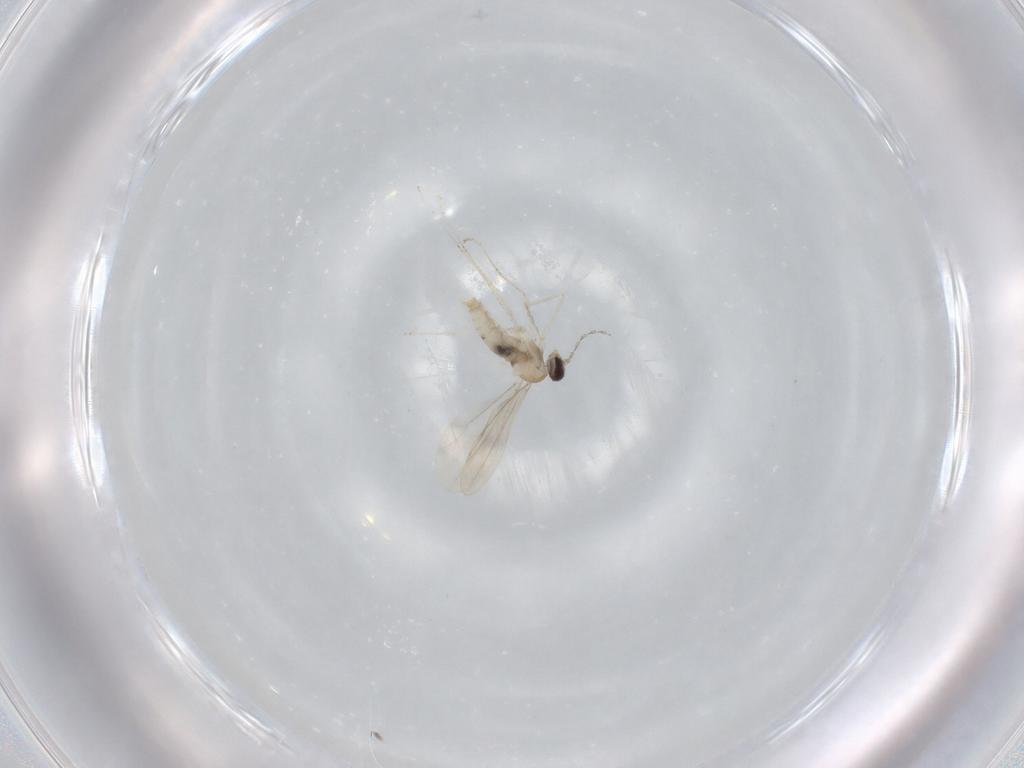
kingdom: Animalia
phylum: Arthropoda
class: Insecta
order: Diptera
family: Cecidomyiidae
